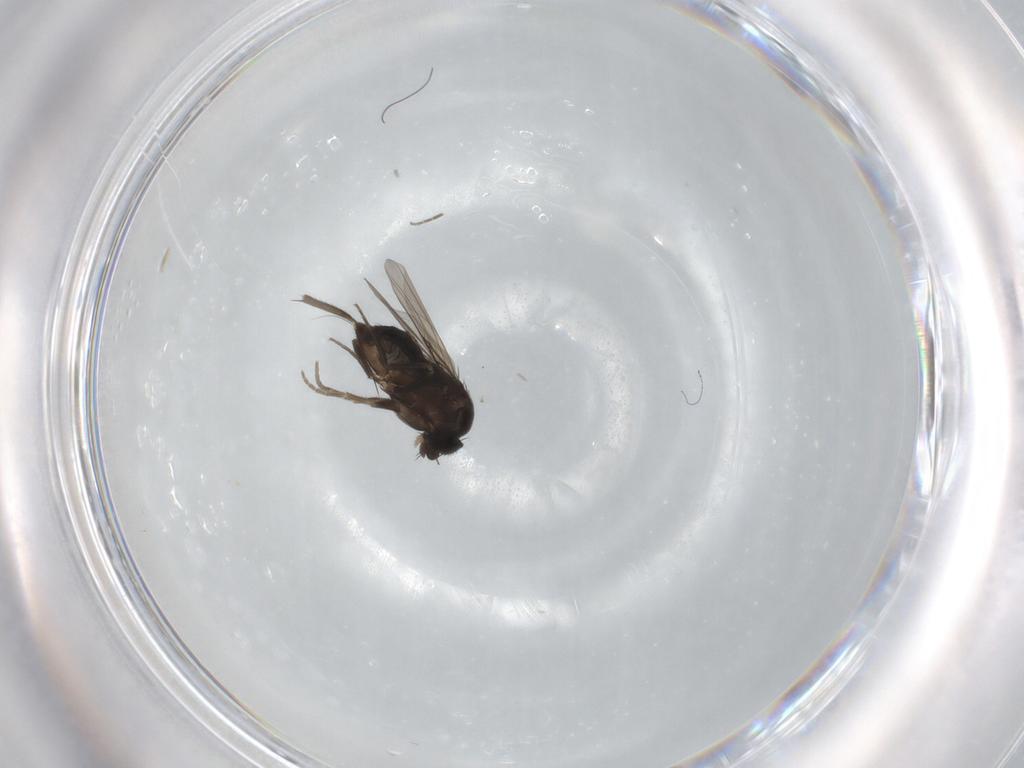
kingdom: Animalia
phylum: Arthropoda
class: Insecta
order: Diptera
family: Phoridae
